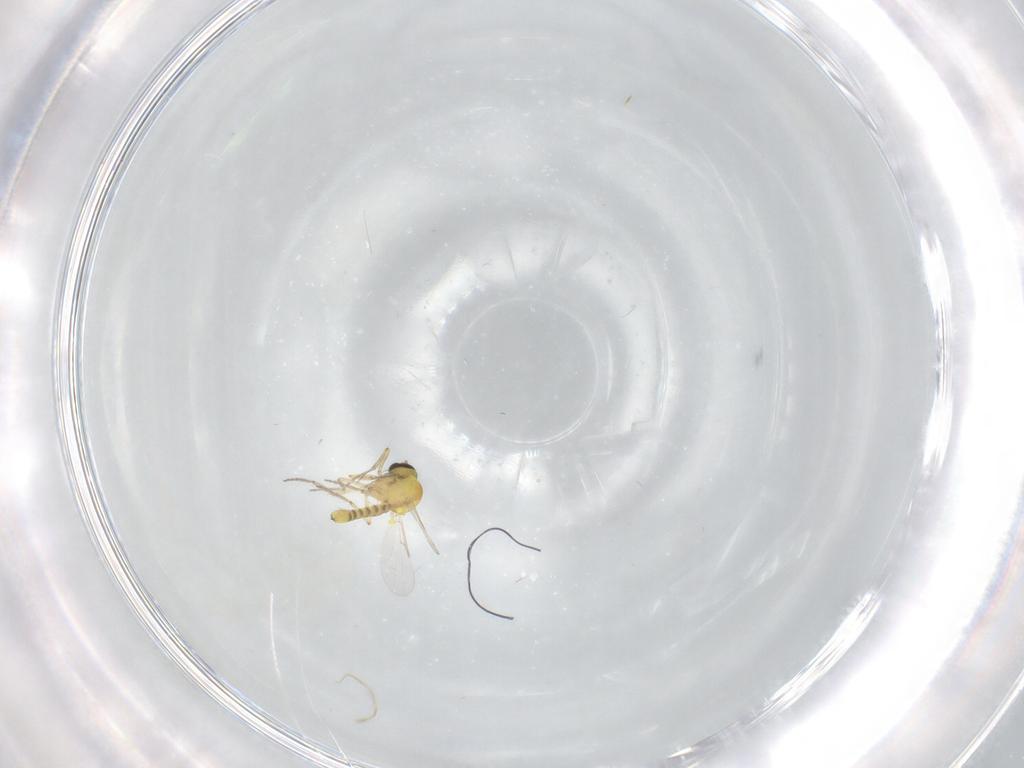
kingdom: Animalia
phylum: Arthropoda
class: Insecta
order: Diptera
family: Ceratopogonidae
